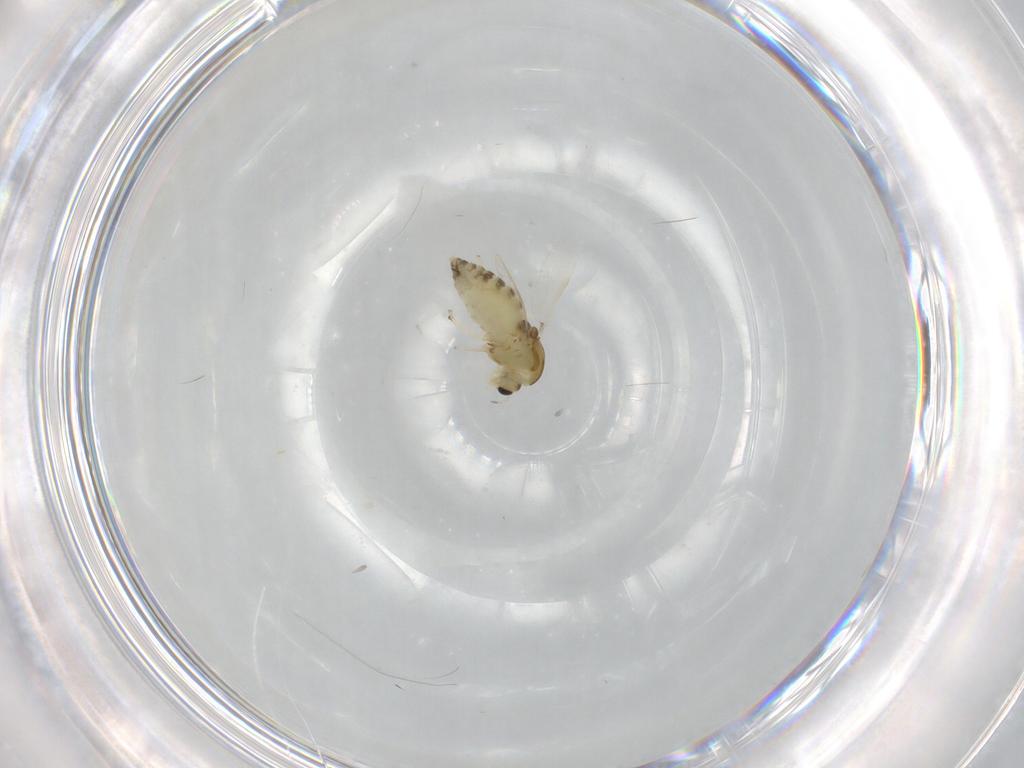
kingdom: Animalia
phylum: Arthropoda
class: Insecta
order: Diptera
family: Chironomidae
